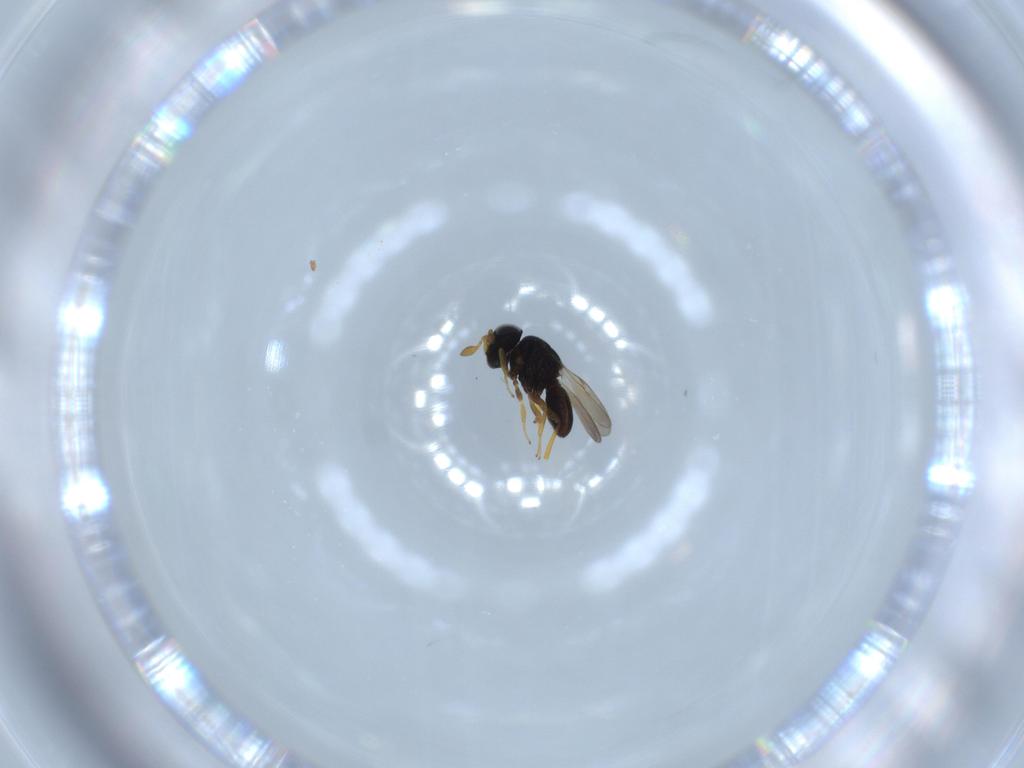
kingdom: Animalia
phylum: Arthropoda
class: Insecta
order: Hymenoptera
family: Scelionidae
